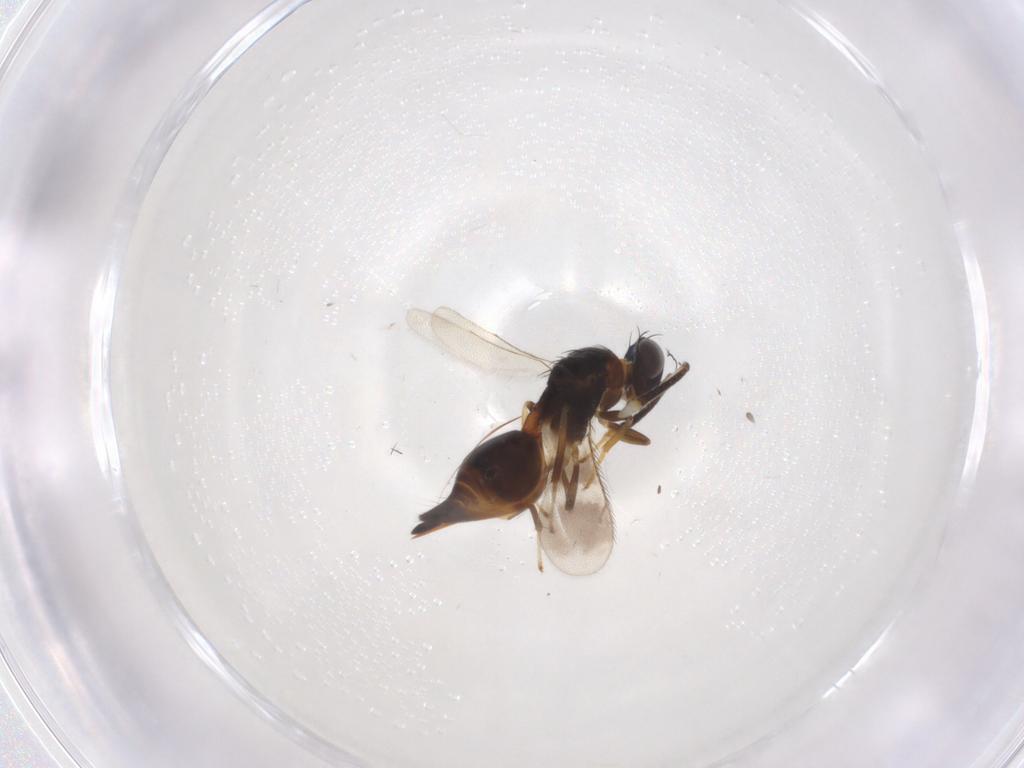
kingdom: Animalia
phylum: Arthropoda
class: Insecta
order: Hymenoptera
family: Diparidae
